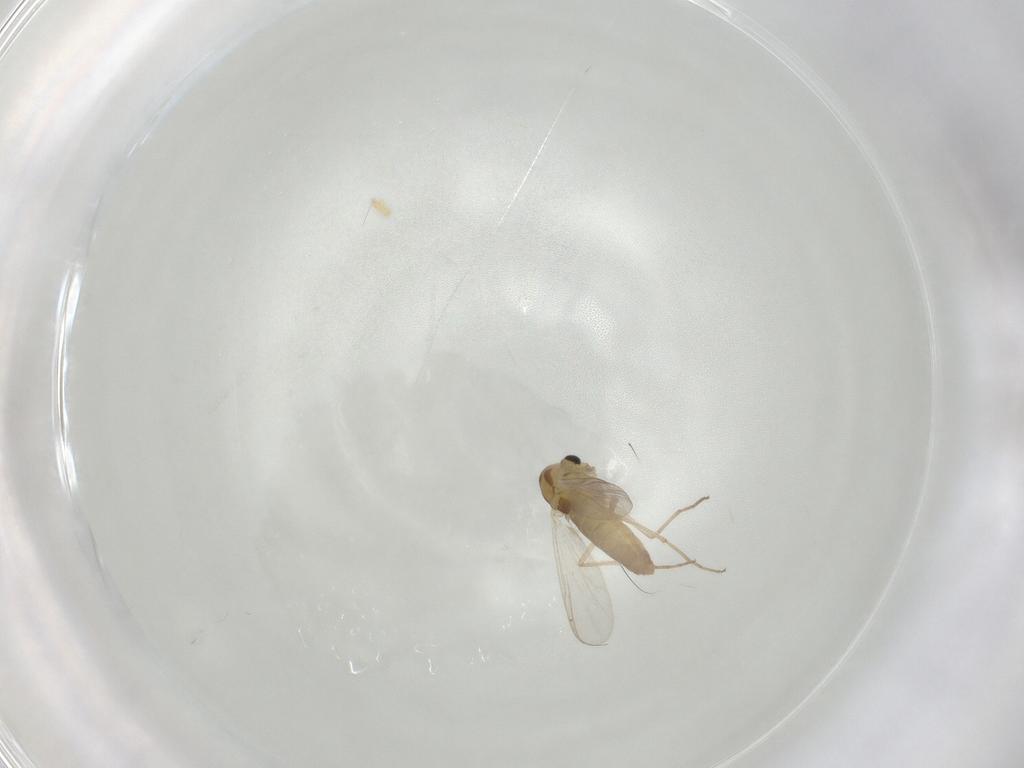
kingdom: Animalia
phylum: Arthropoda
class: Insecta
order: Diptera
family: Chironomidae
